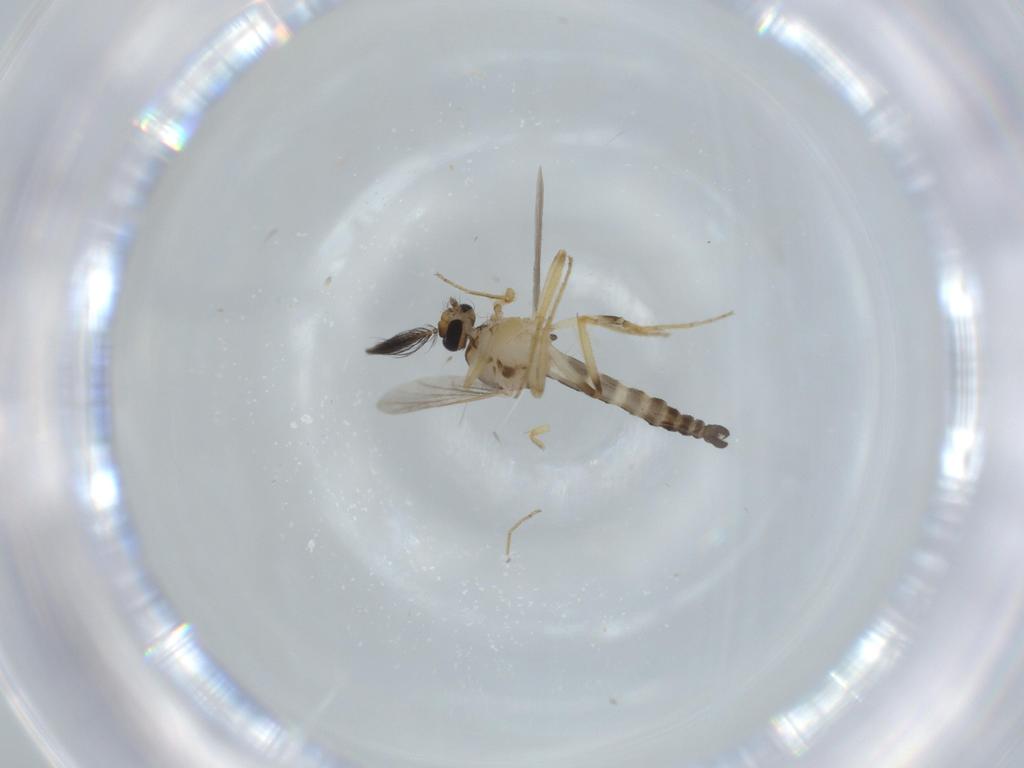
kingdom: Animalia
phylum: Arthropoda
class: Insecta
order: Diptera
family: Ceratopogonidae
